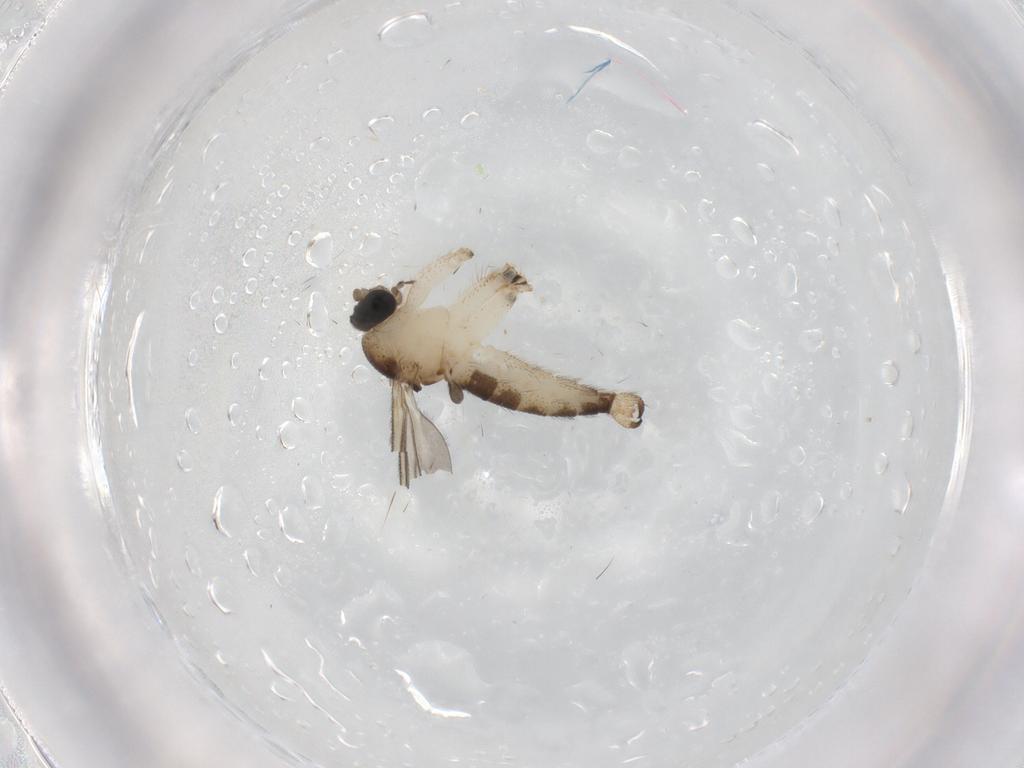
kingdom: Animalia
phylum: Arthropoda
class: Insecta
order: Diptera
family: Sciaridae
